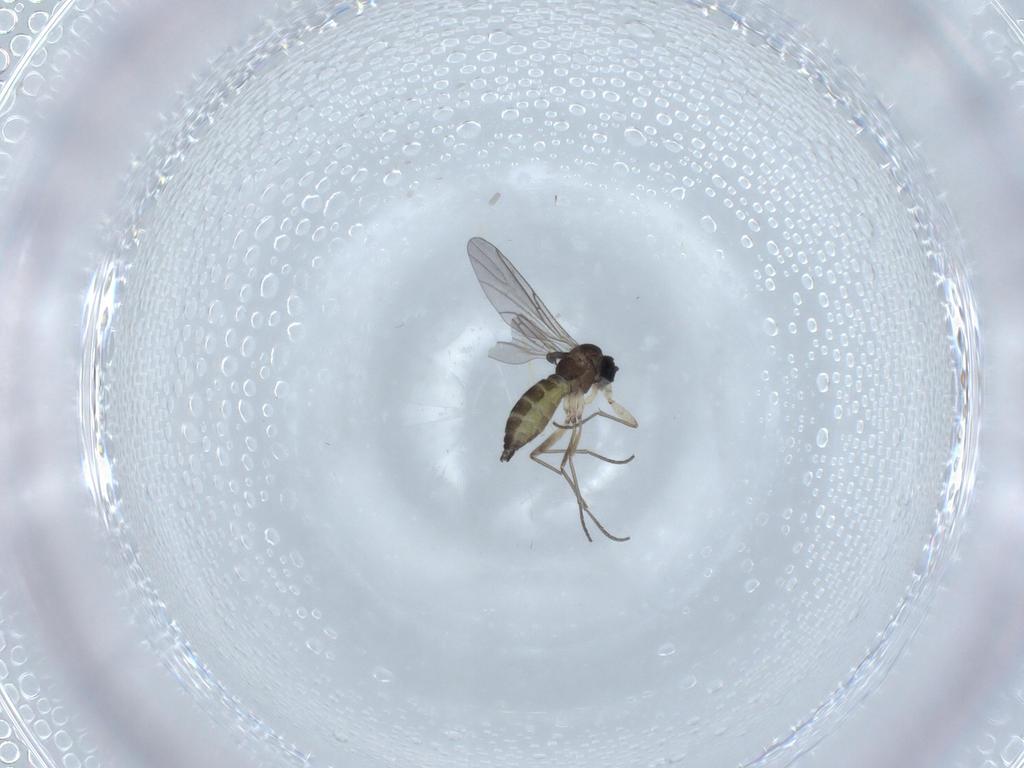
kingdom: Animalia
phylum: Arthropoda
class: Insecta
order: Diptera
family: Sciaridae
